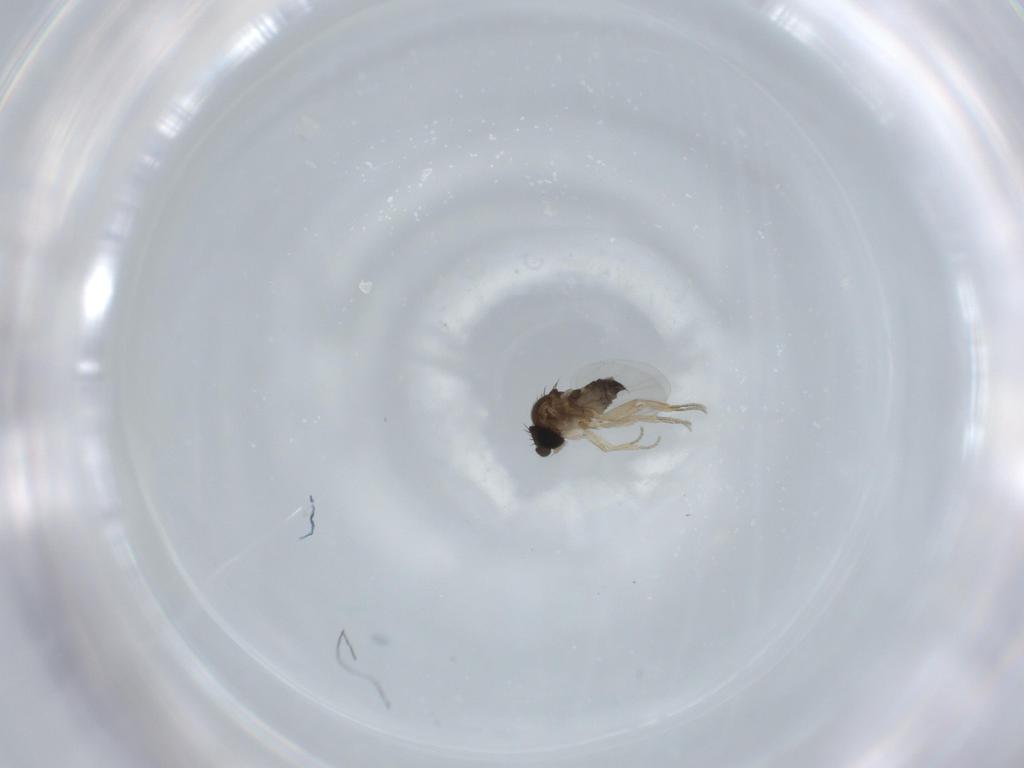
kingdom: Animalia
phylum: Arthropoda
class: Insecta
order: Diptera
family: Phoridae
